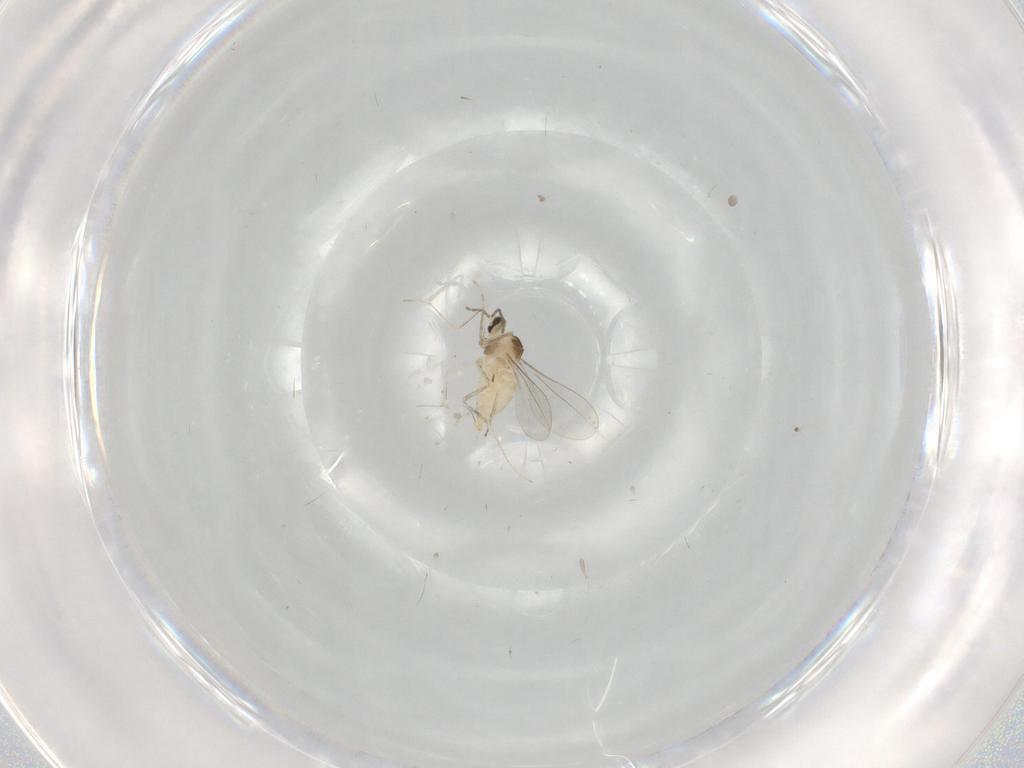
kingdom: Animalia
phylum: Arthropoda
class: Insecta
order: Diptera
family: Cecidomyiidae
